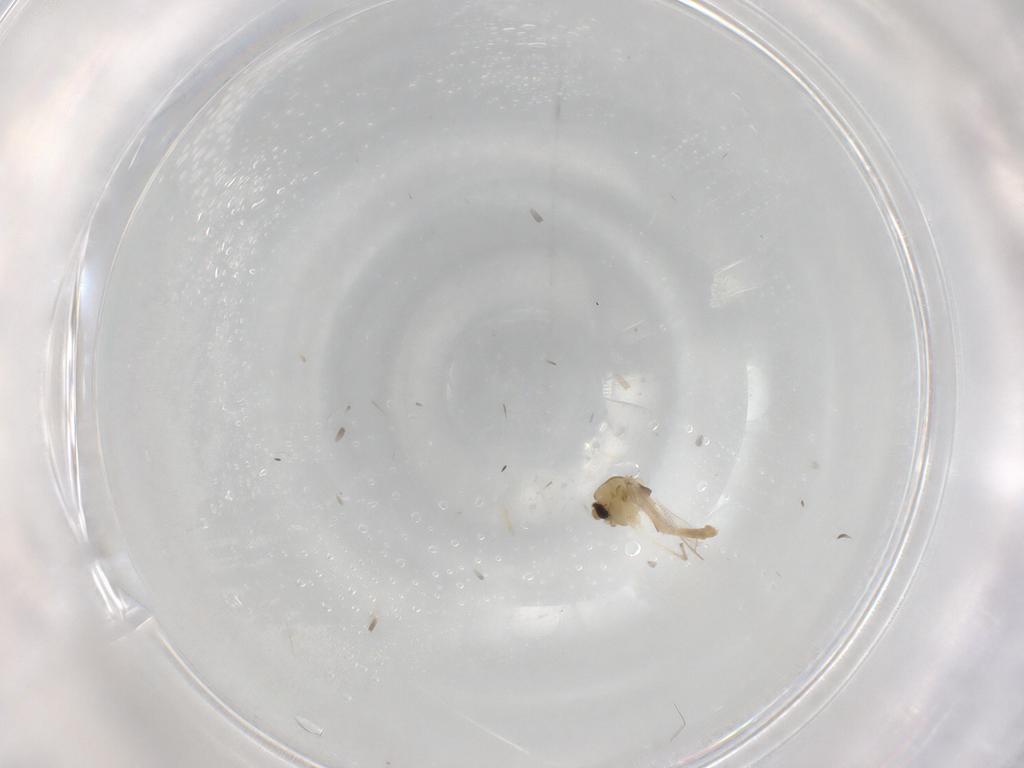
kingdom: Animalia
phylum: Arthropoda
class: Insecta
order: Diptera
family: Chironomidae
